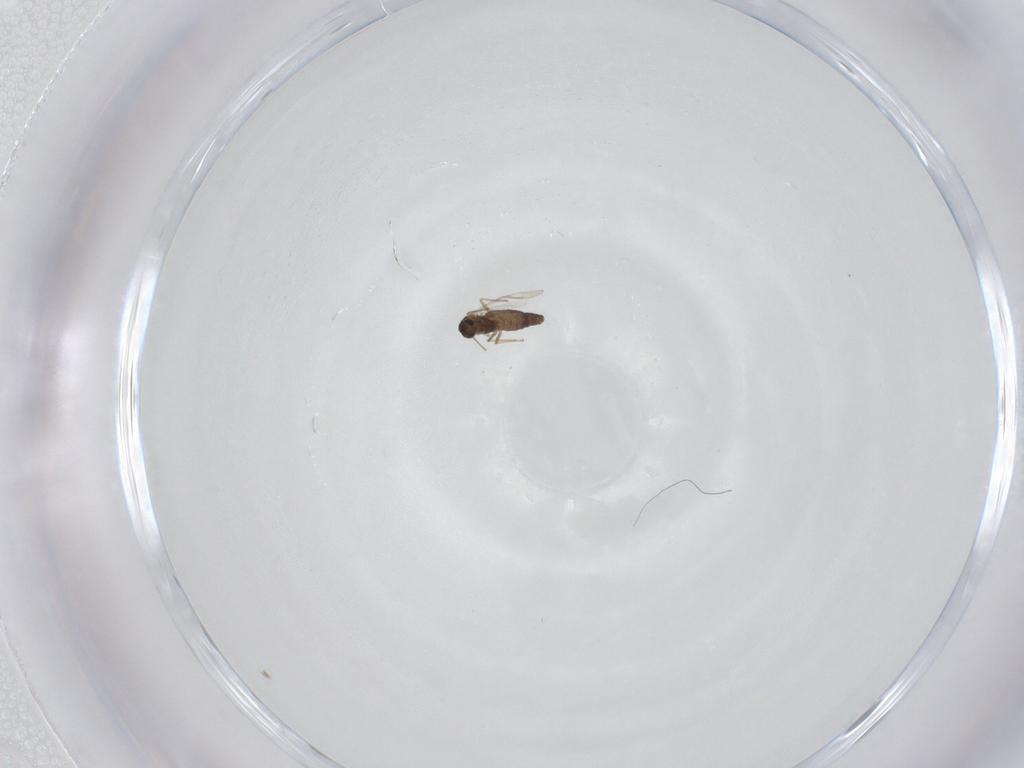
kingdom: Animalia
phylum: Arthropoda
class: Insecta
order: Diptera
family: Chironomidae
